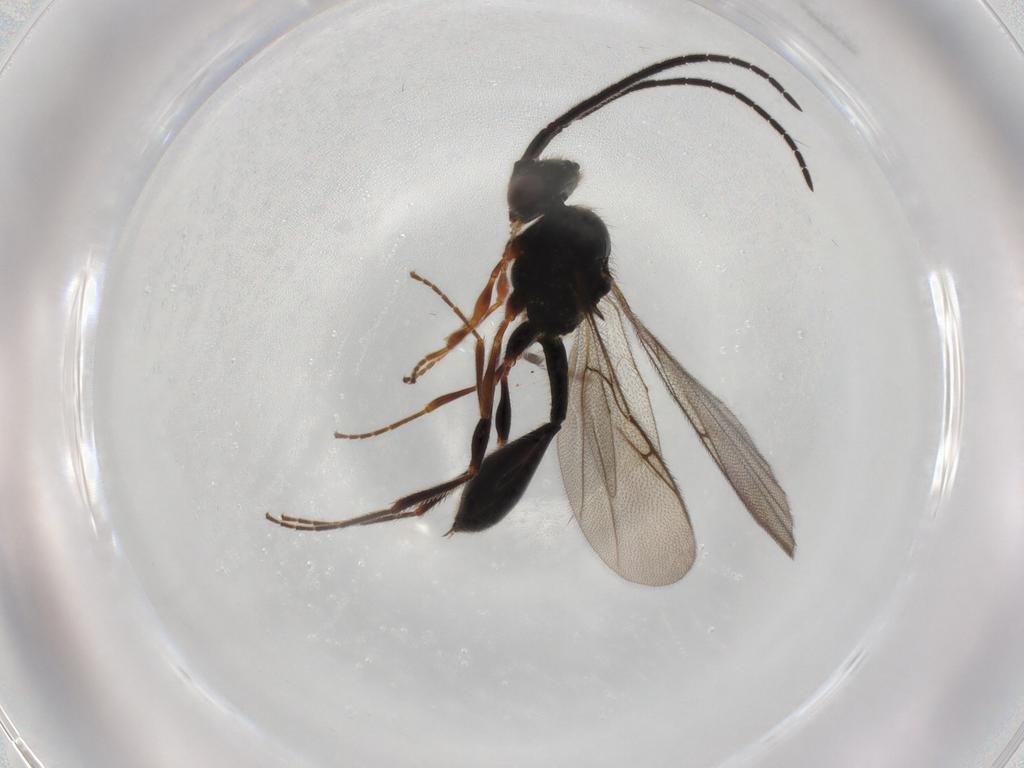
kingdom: Animalia
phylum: Arthropoda
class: Insecta
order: Hymenoptera
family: Diapriidae
